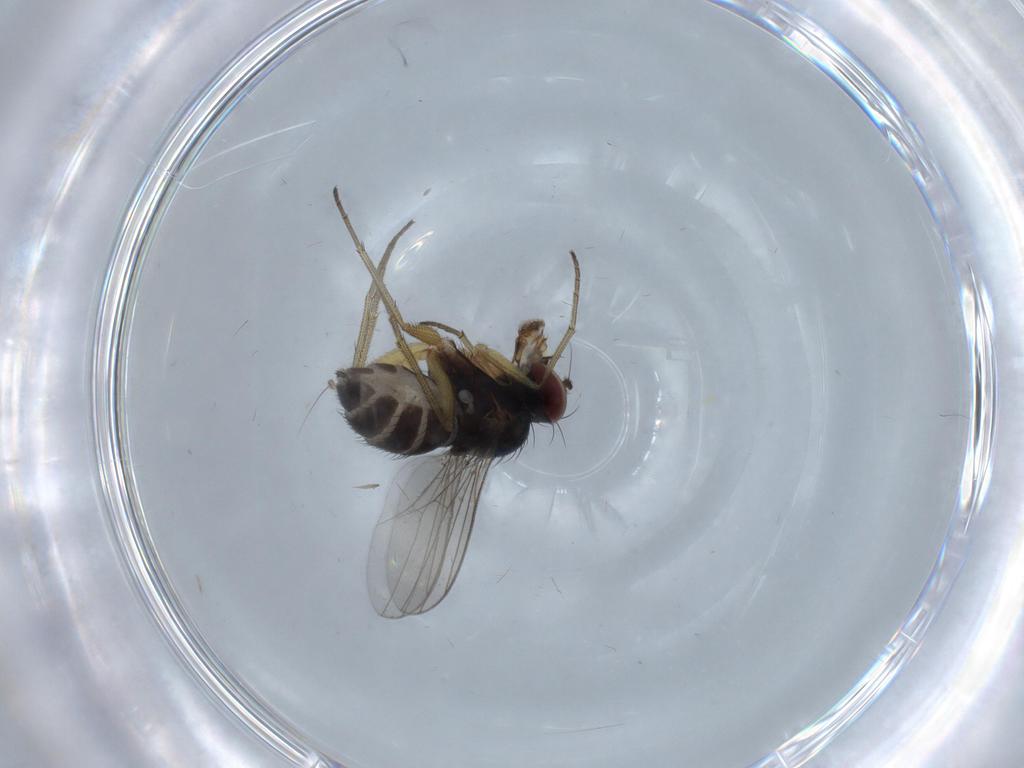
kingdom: Animalia
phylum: Arthropoda
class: Insecta
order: Diptera
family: Dolichopodidae
